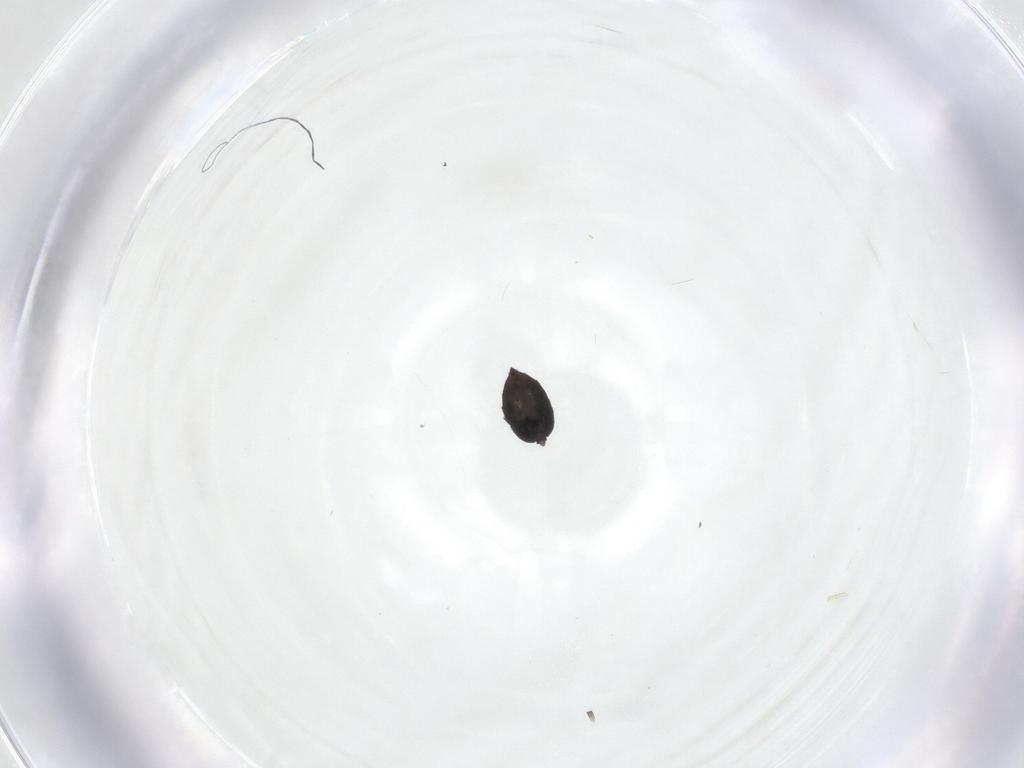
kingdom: Animalia
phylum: Arthropoda
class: Insecta
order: Hymenoptera
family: Eulophidae
